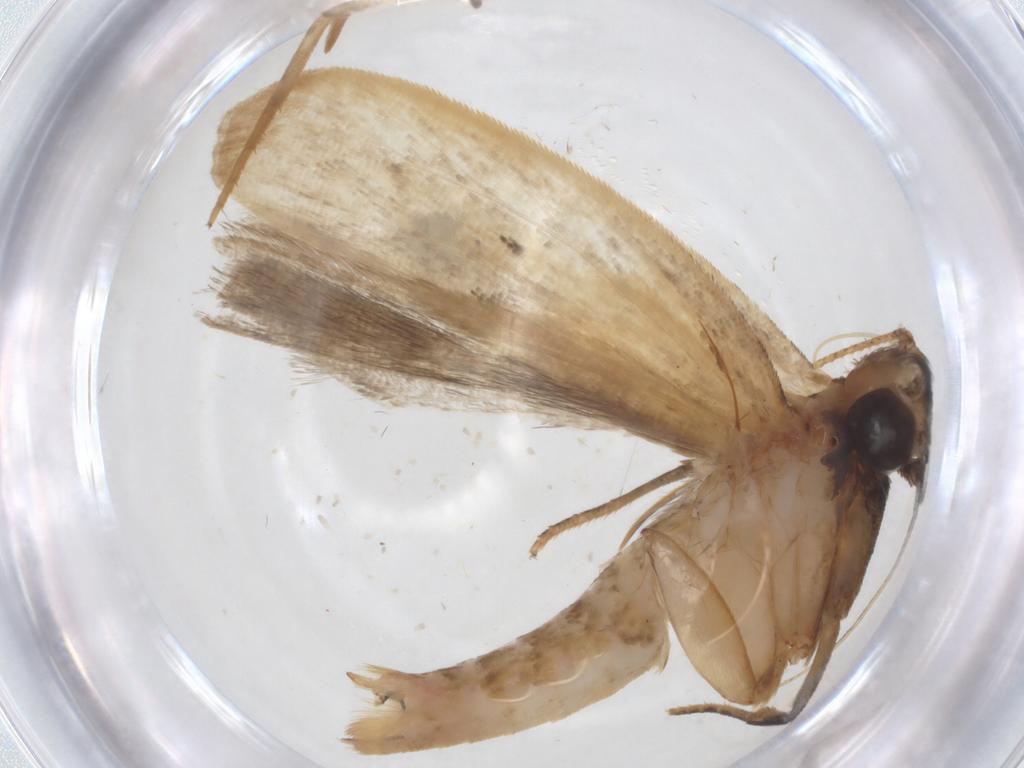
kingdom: Animalia
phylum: Arthropoda
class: Insecta
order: Lepidoptera
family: Gelechiidae
